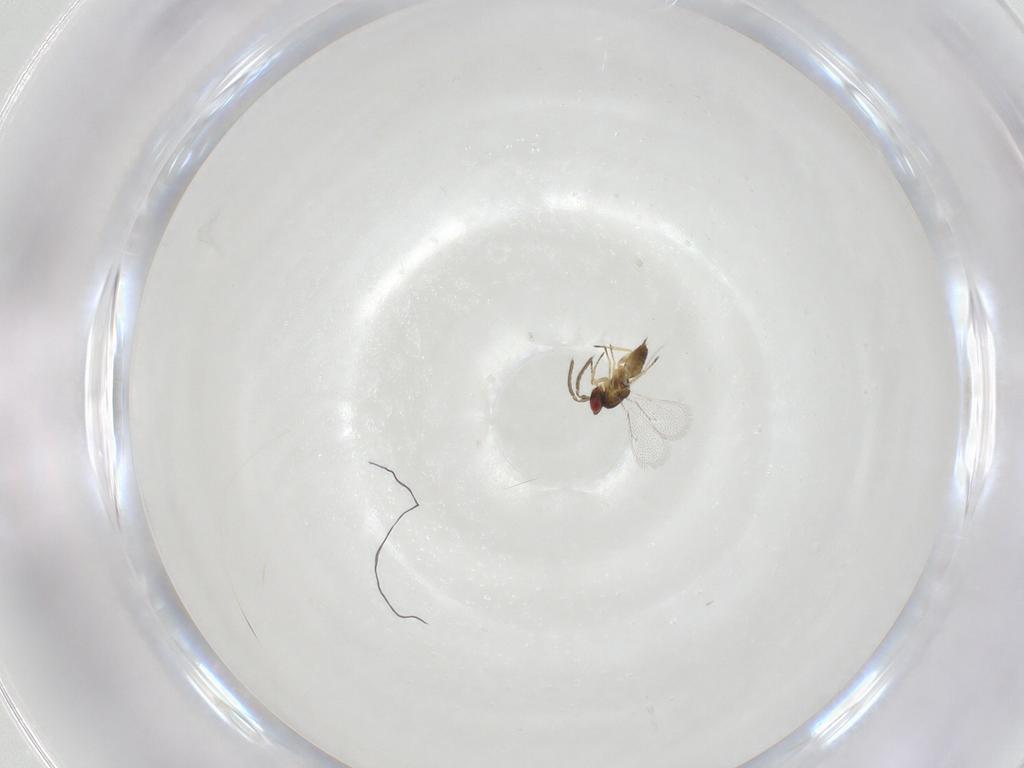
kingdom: Animalia
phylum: Arthropoda
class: Insecta
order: Hymenoptera
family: Eulophidae
